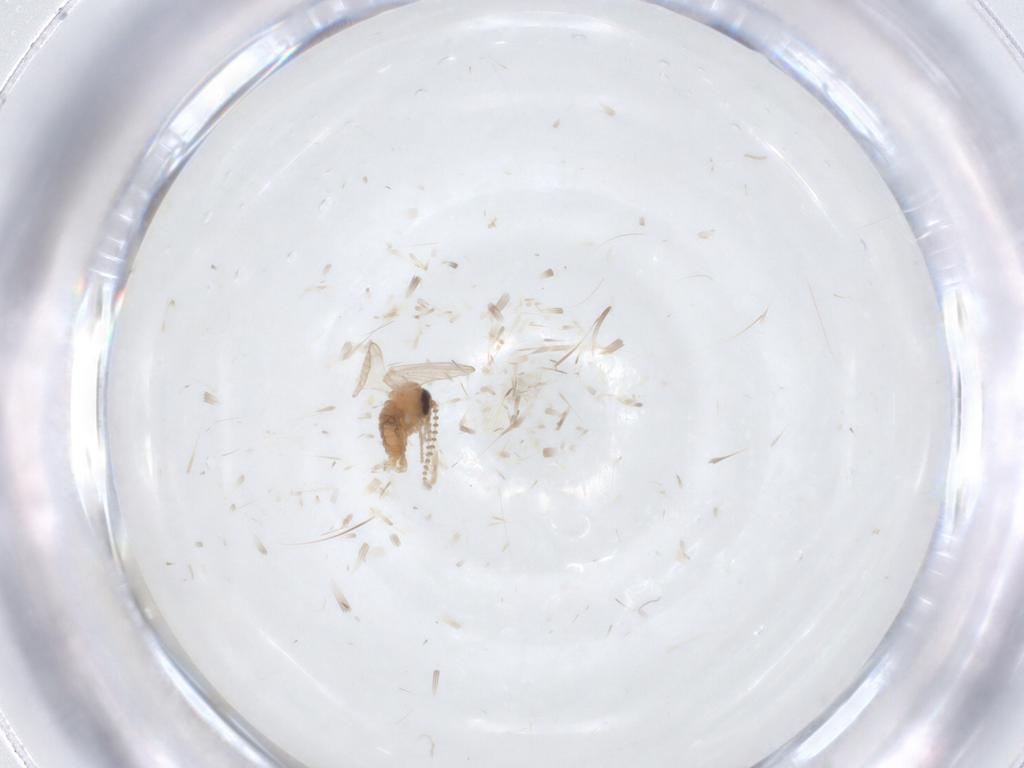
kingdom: Animalia
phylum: Arthropoda
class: Insecta
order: Diptera
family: Psychodidae
